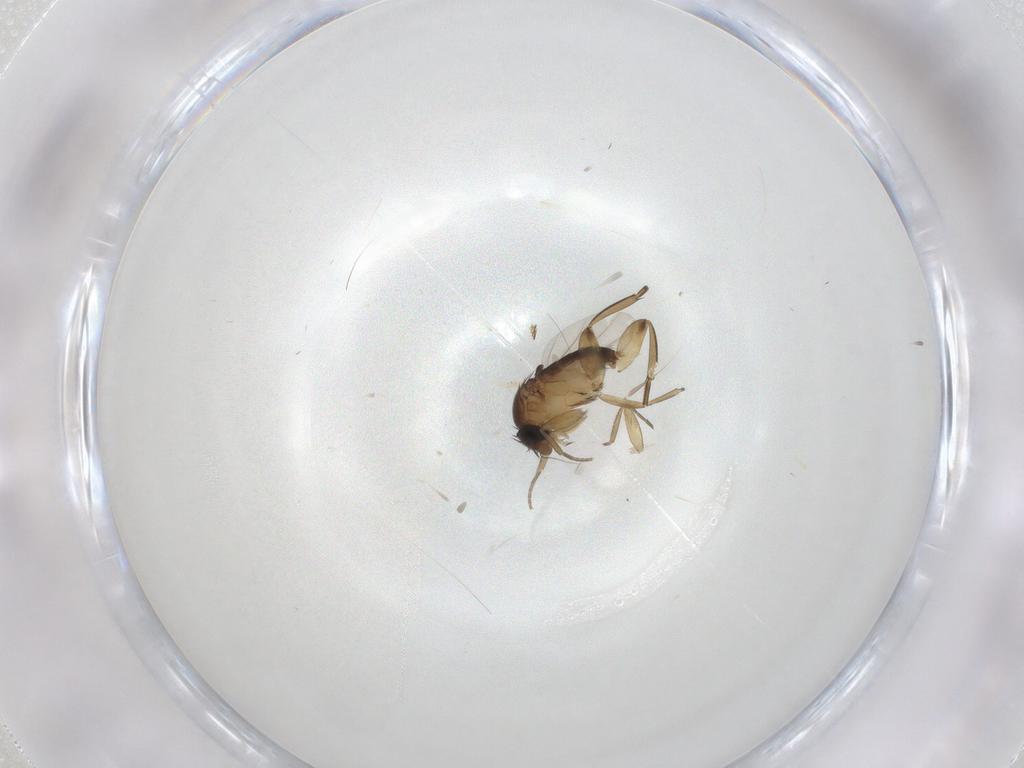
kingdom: Animalia
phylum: Arthropoda
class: Insecta
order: Diptera
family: Phoridae
